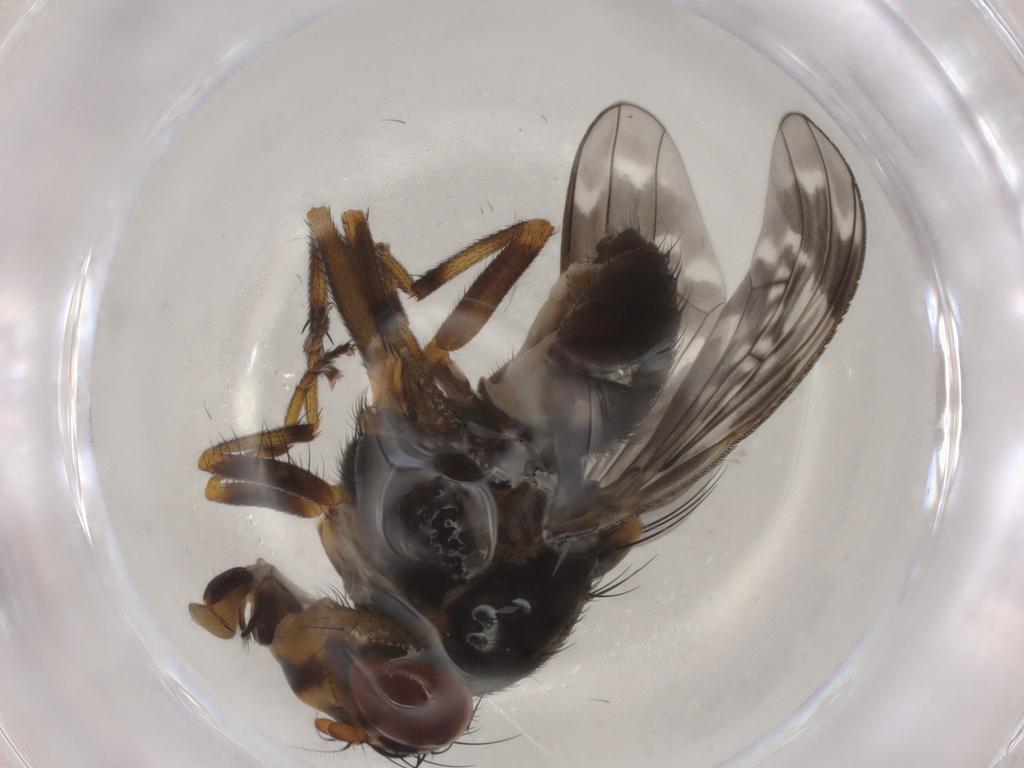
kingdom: Animalia
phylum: Arthropoda
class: Insecta
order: Diptera
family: Lauxaniidae
